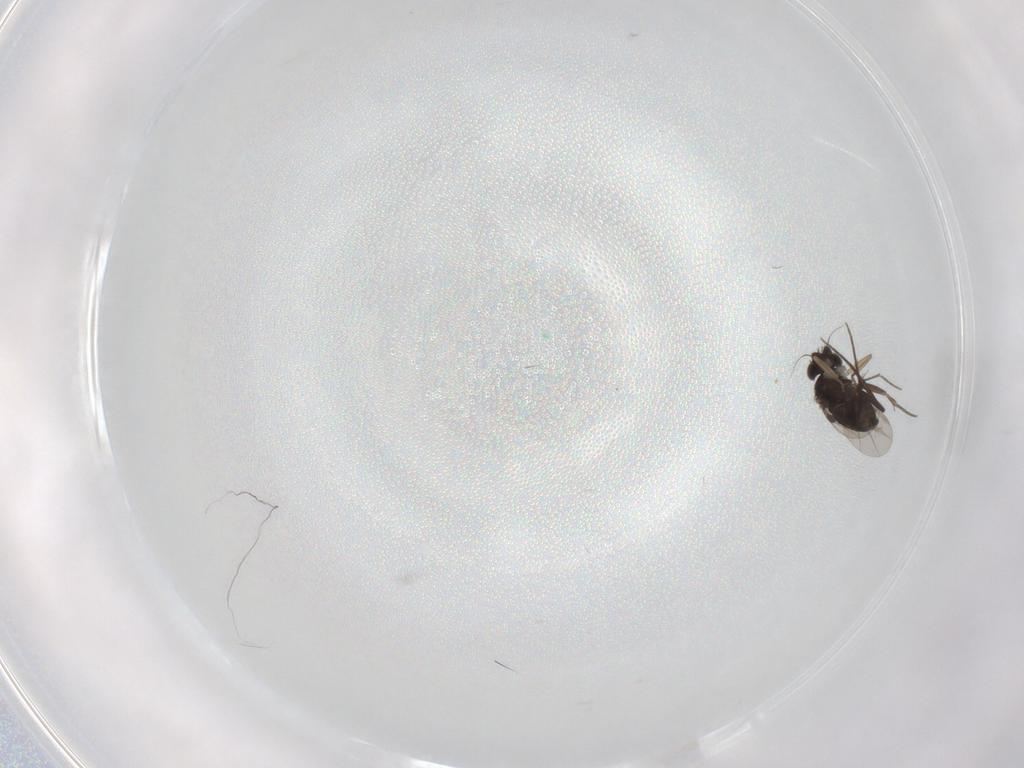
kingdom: Animalia
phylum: Arthropoda
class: Insecta
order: Diptera
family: Phoridae
